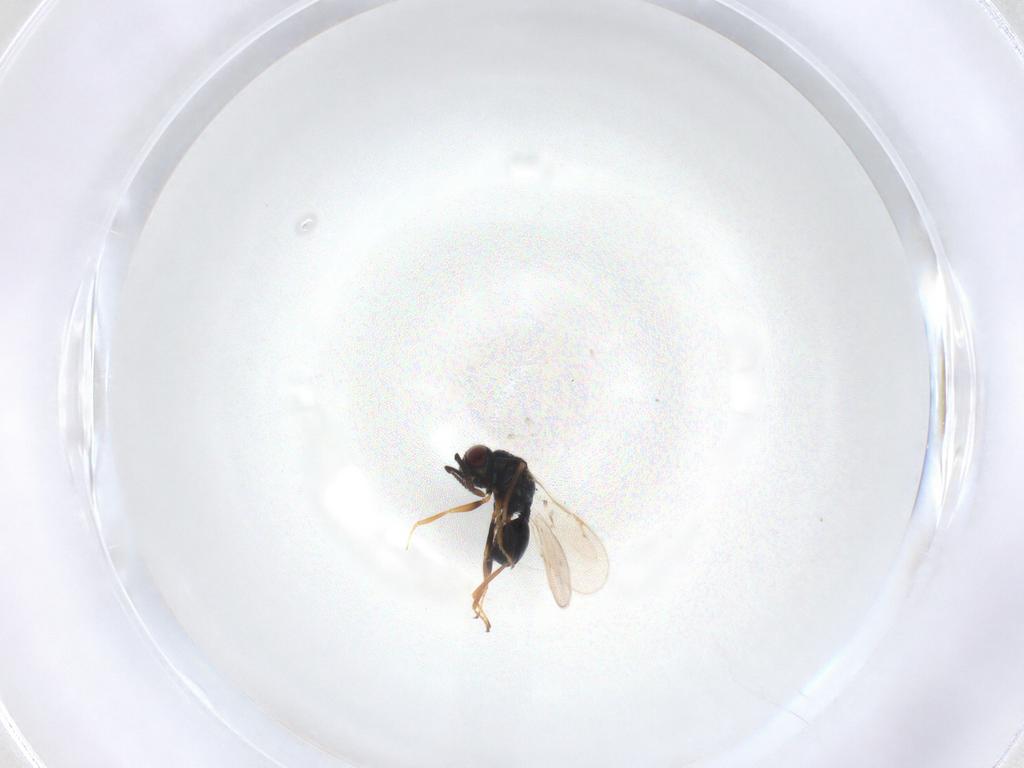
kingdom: Animalia
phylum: Arthropoda
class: Insecta
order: Hymenoptera
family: Chalcidoidea_incertae_sedis
